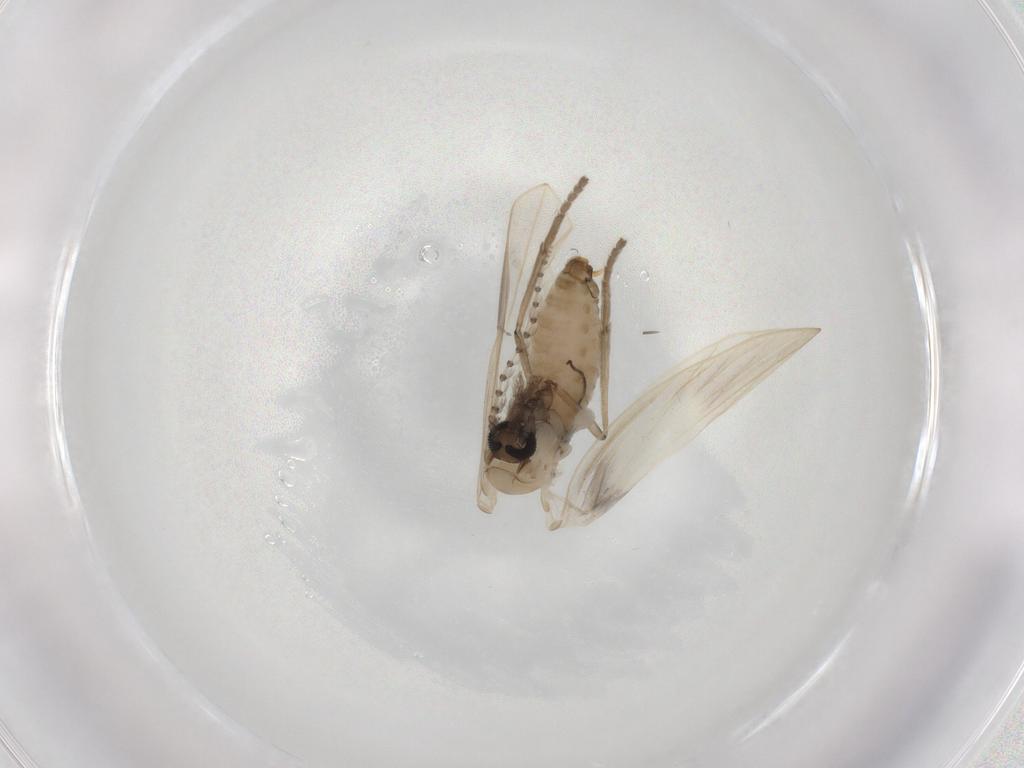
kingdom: Animalia
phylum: Arthropoda
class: Insecta
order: Diptera
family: Psychodidae
